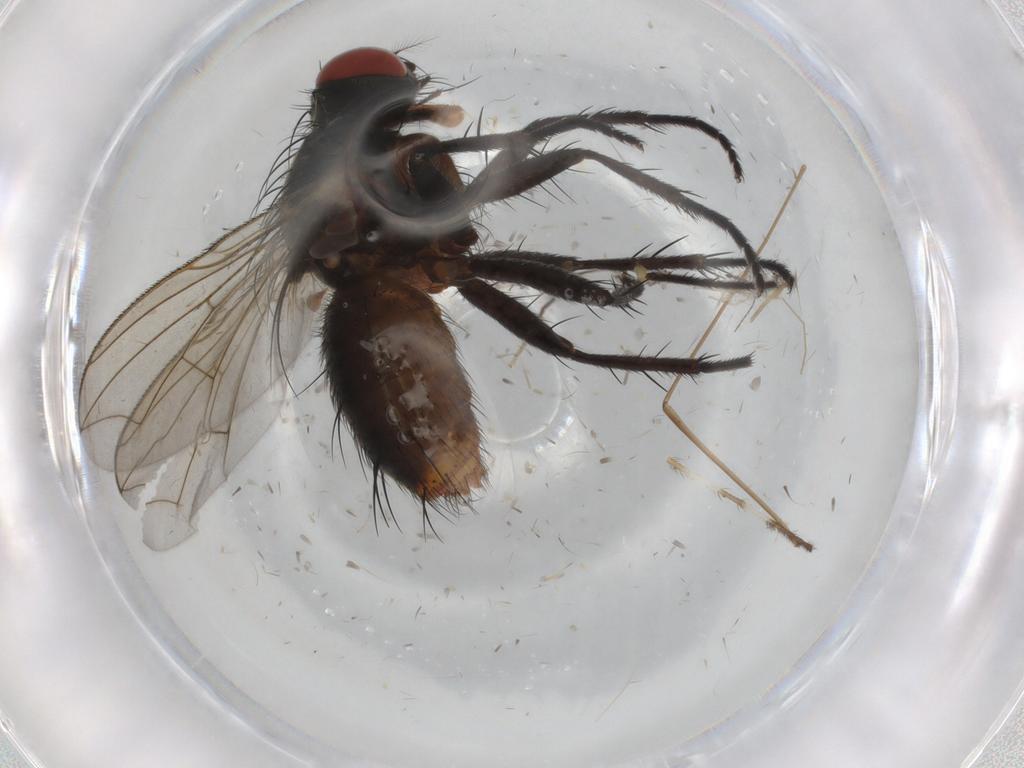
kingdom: Animalia
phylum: Arthropoda
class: Insecta
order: Diptera
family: Sarcophagidae
